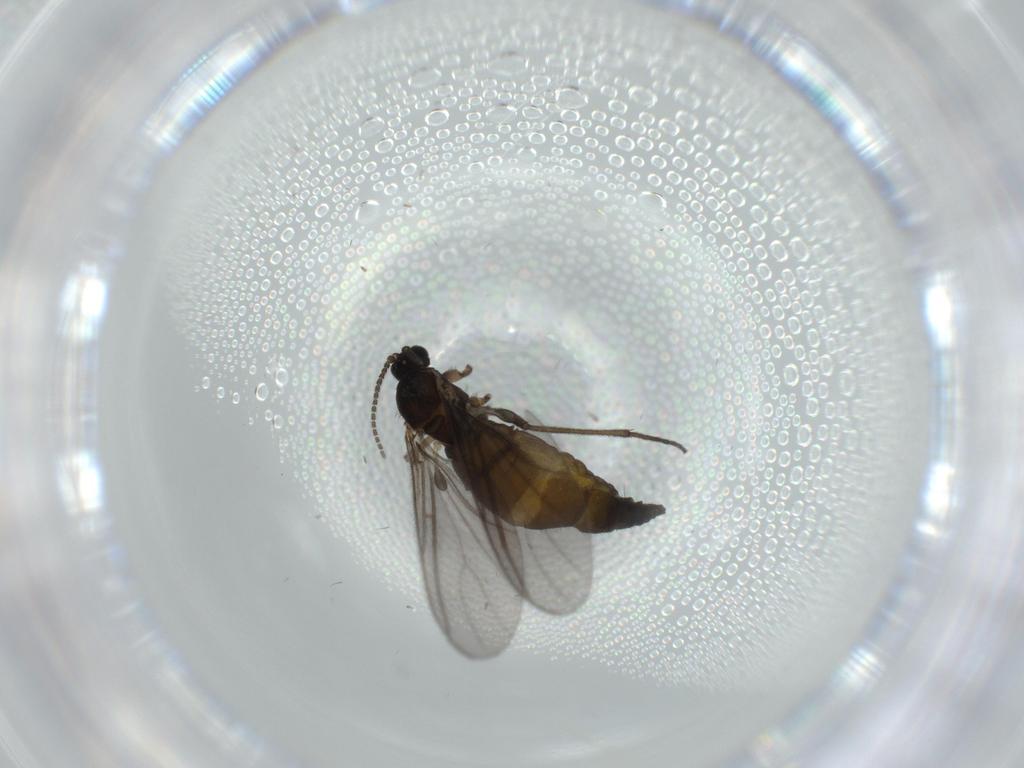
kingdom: Animalia
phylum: Arthropoda
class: Insecta
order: Diptera
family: Sciaridae
